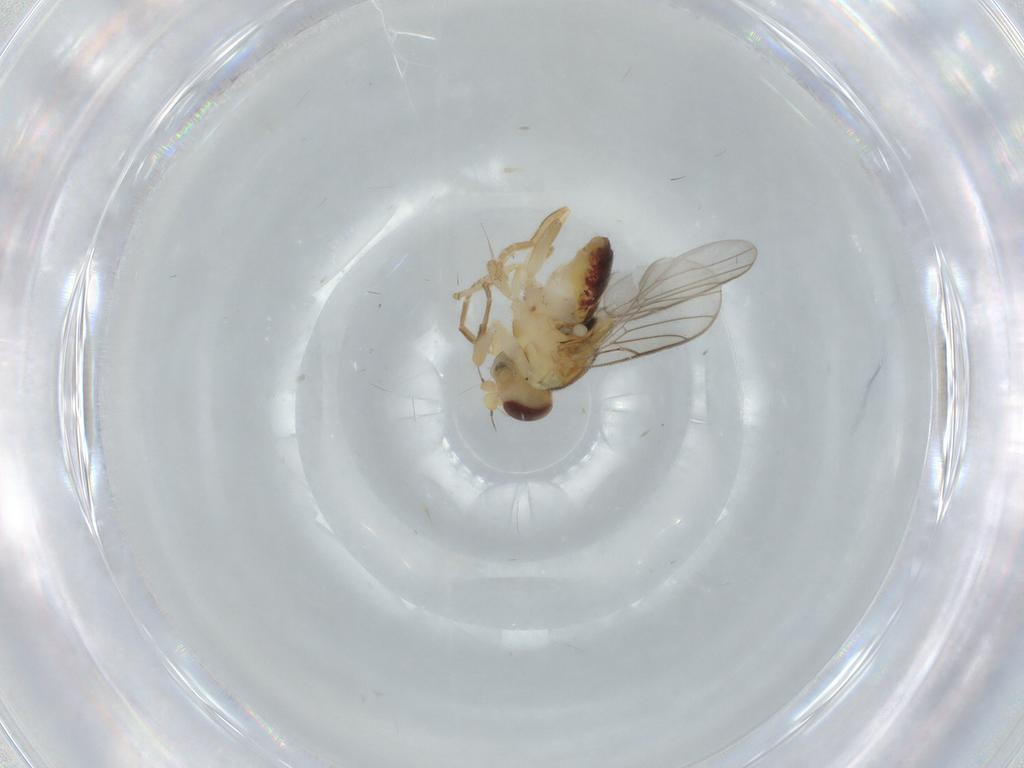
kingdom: Animalia
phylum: Arthropoda
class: Insecta
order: Diptera
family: Chloropidae
